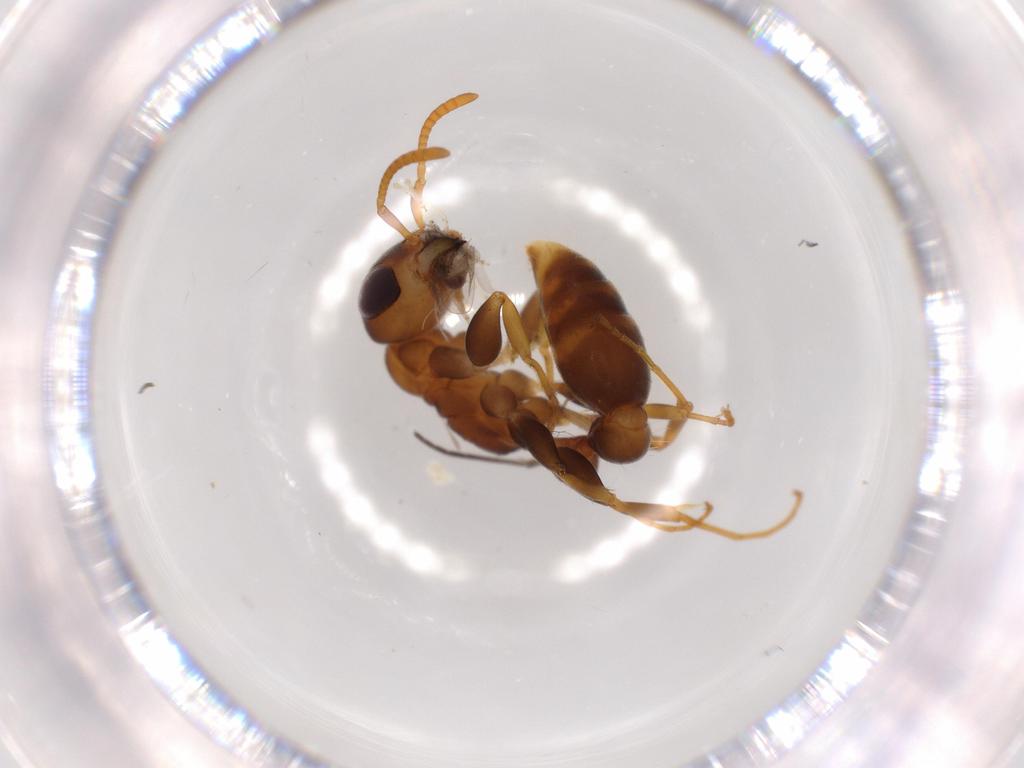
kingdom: Animalia
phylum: Arthropoda
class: Insecta
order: Hymenoptera
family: Formicidae
